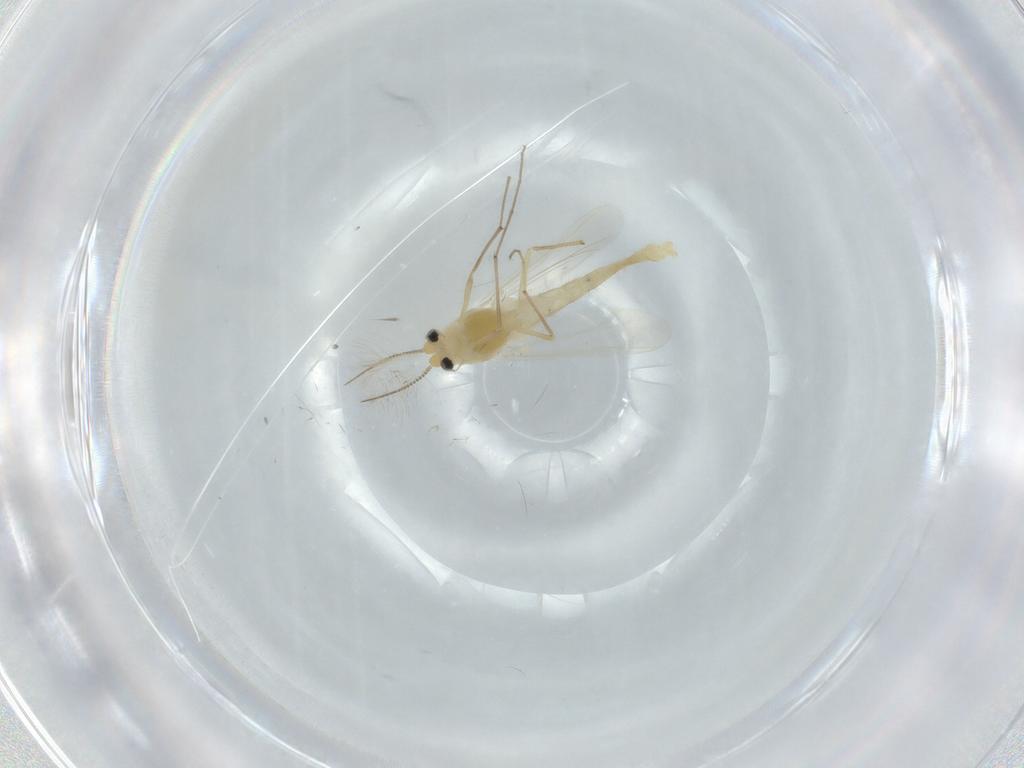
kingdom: Animalia
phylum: Arthropoda
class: Insecta
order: Diptera
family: Chironomidae
